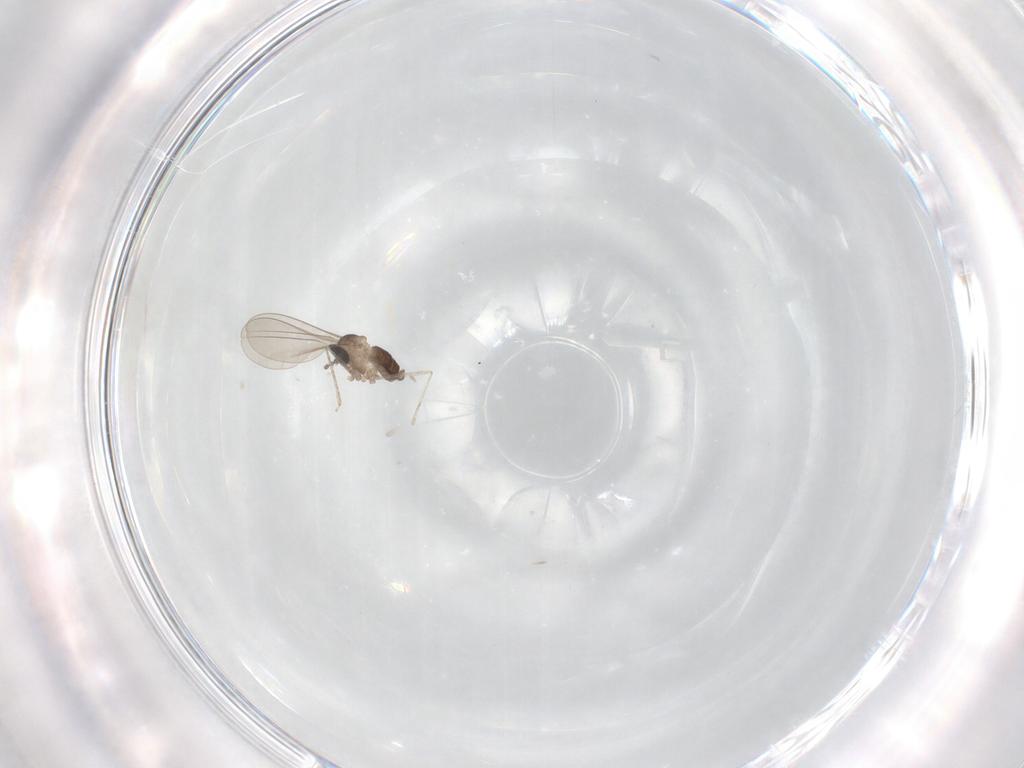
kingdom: Animalia
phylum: Arthropoda
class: Insecta
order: Diptera
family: Cecidomyiidae
